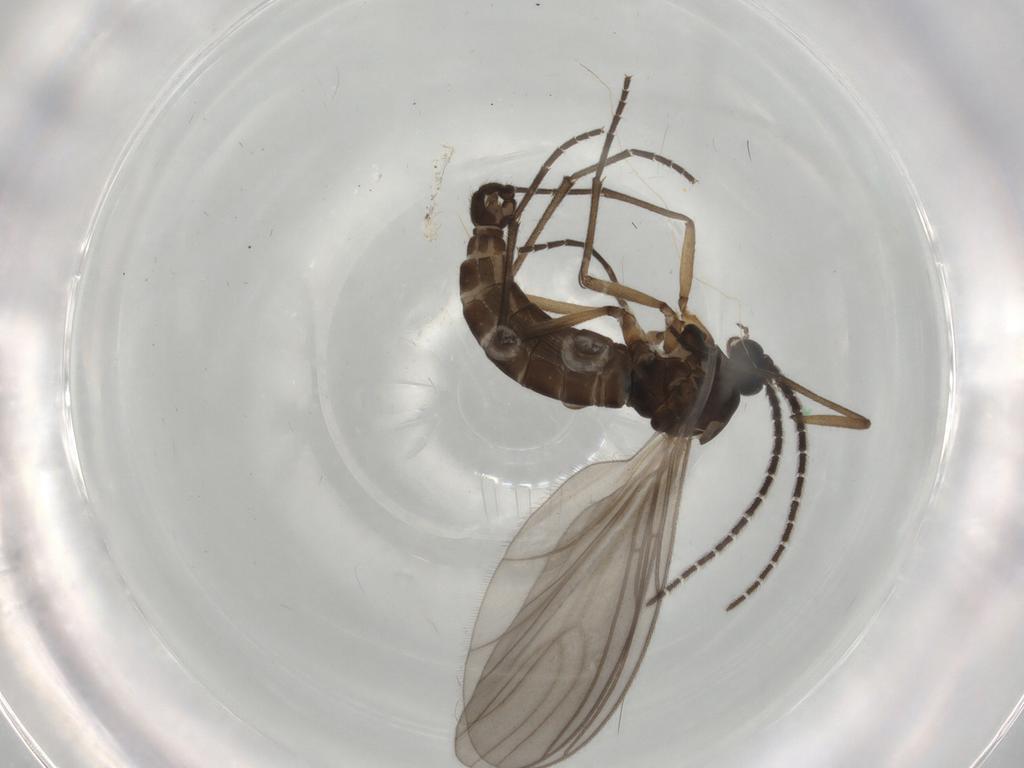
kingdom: Animalia
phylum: Arthropoda
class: Insecta
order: Diptera
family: Sciaridae
